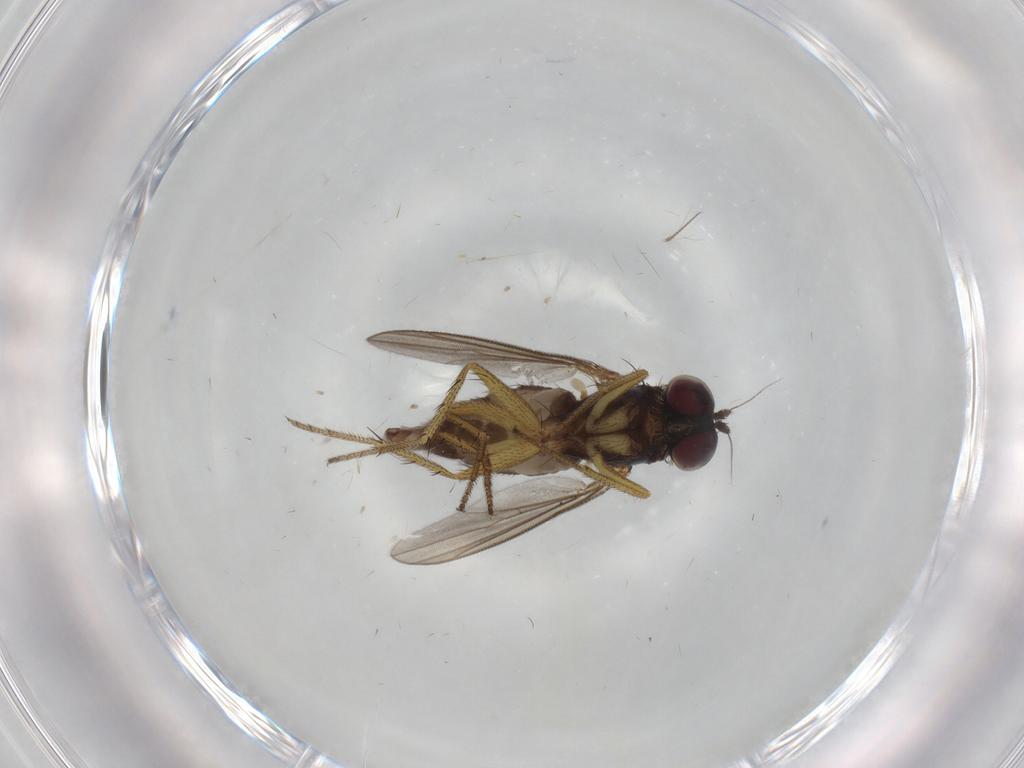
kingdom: Animalia
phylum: Arthropoda
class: Insecta
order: Diptera
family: Dolichopodidae
